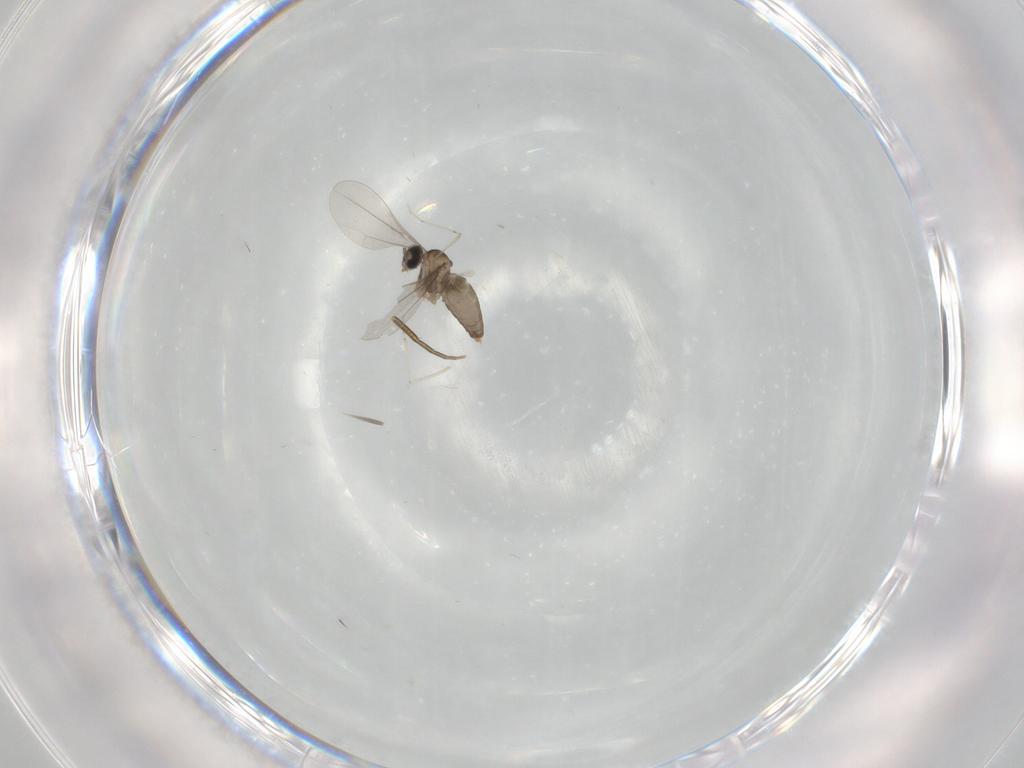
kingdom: Animalia
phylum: Arthropoda
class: Insecta
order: Diptera
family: Cecidomyiidae
